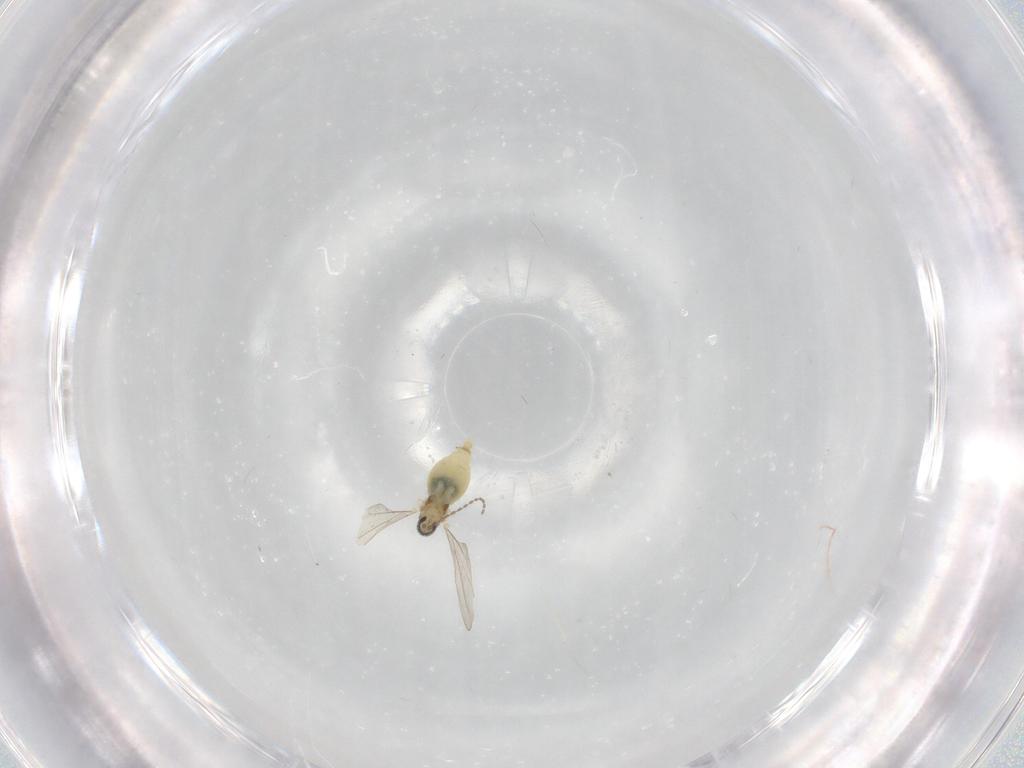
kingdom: Animalia
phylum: Arthropoda
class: Insecta
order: Diptera
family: Cecidomyiidae
